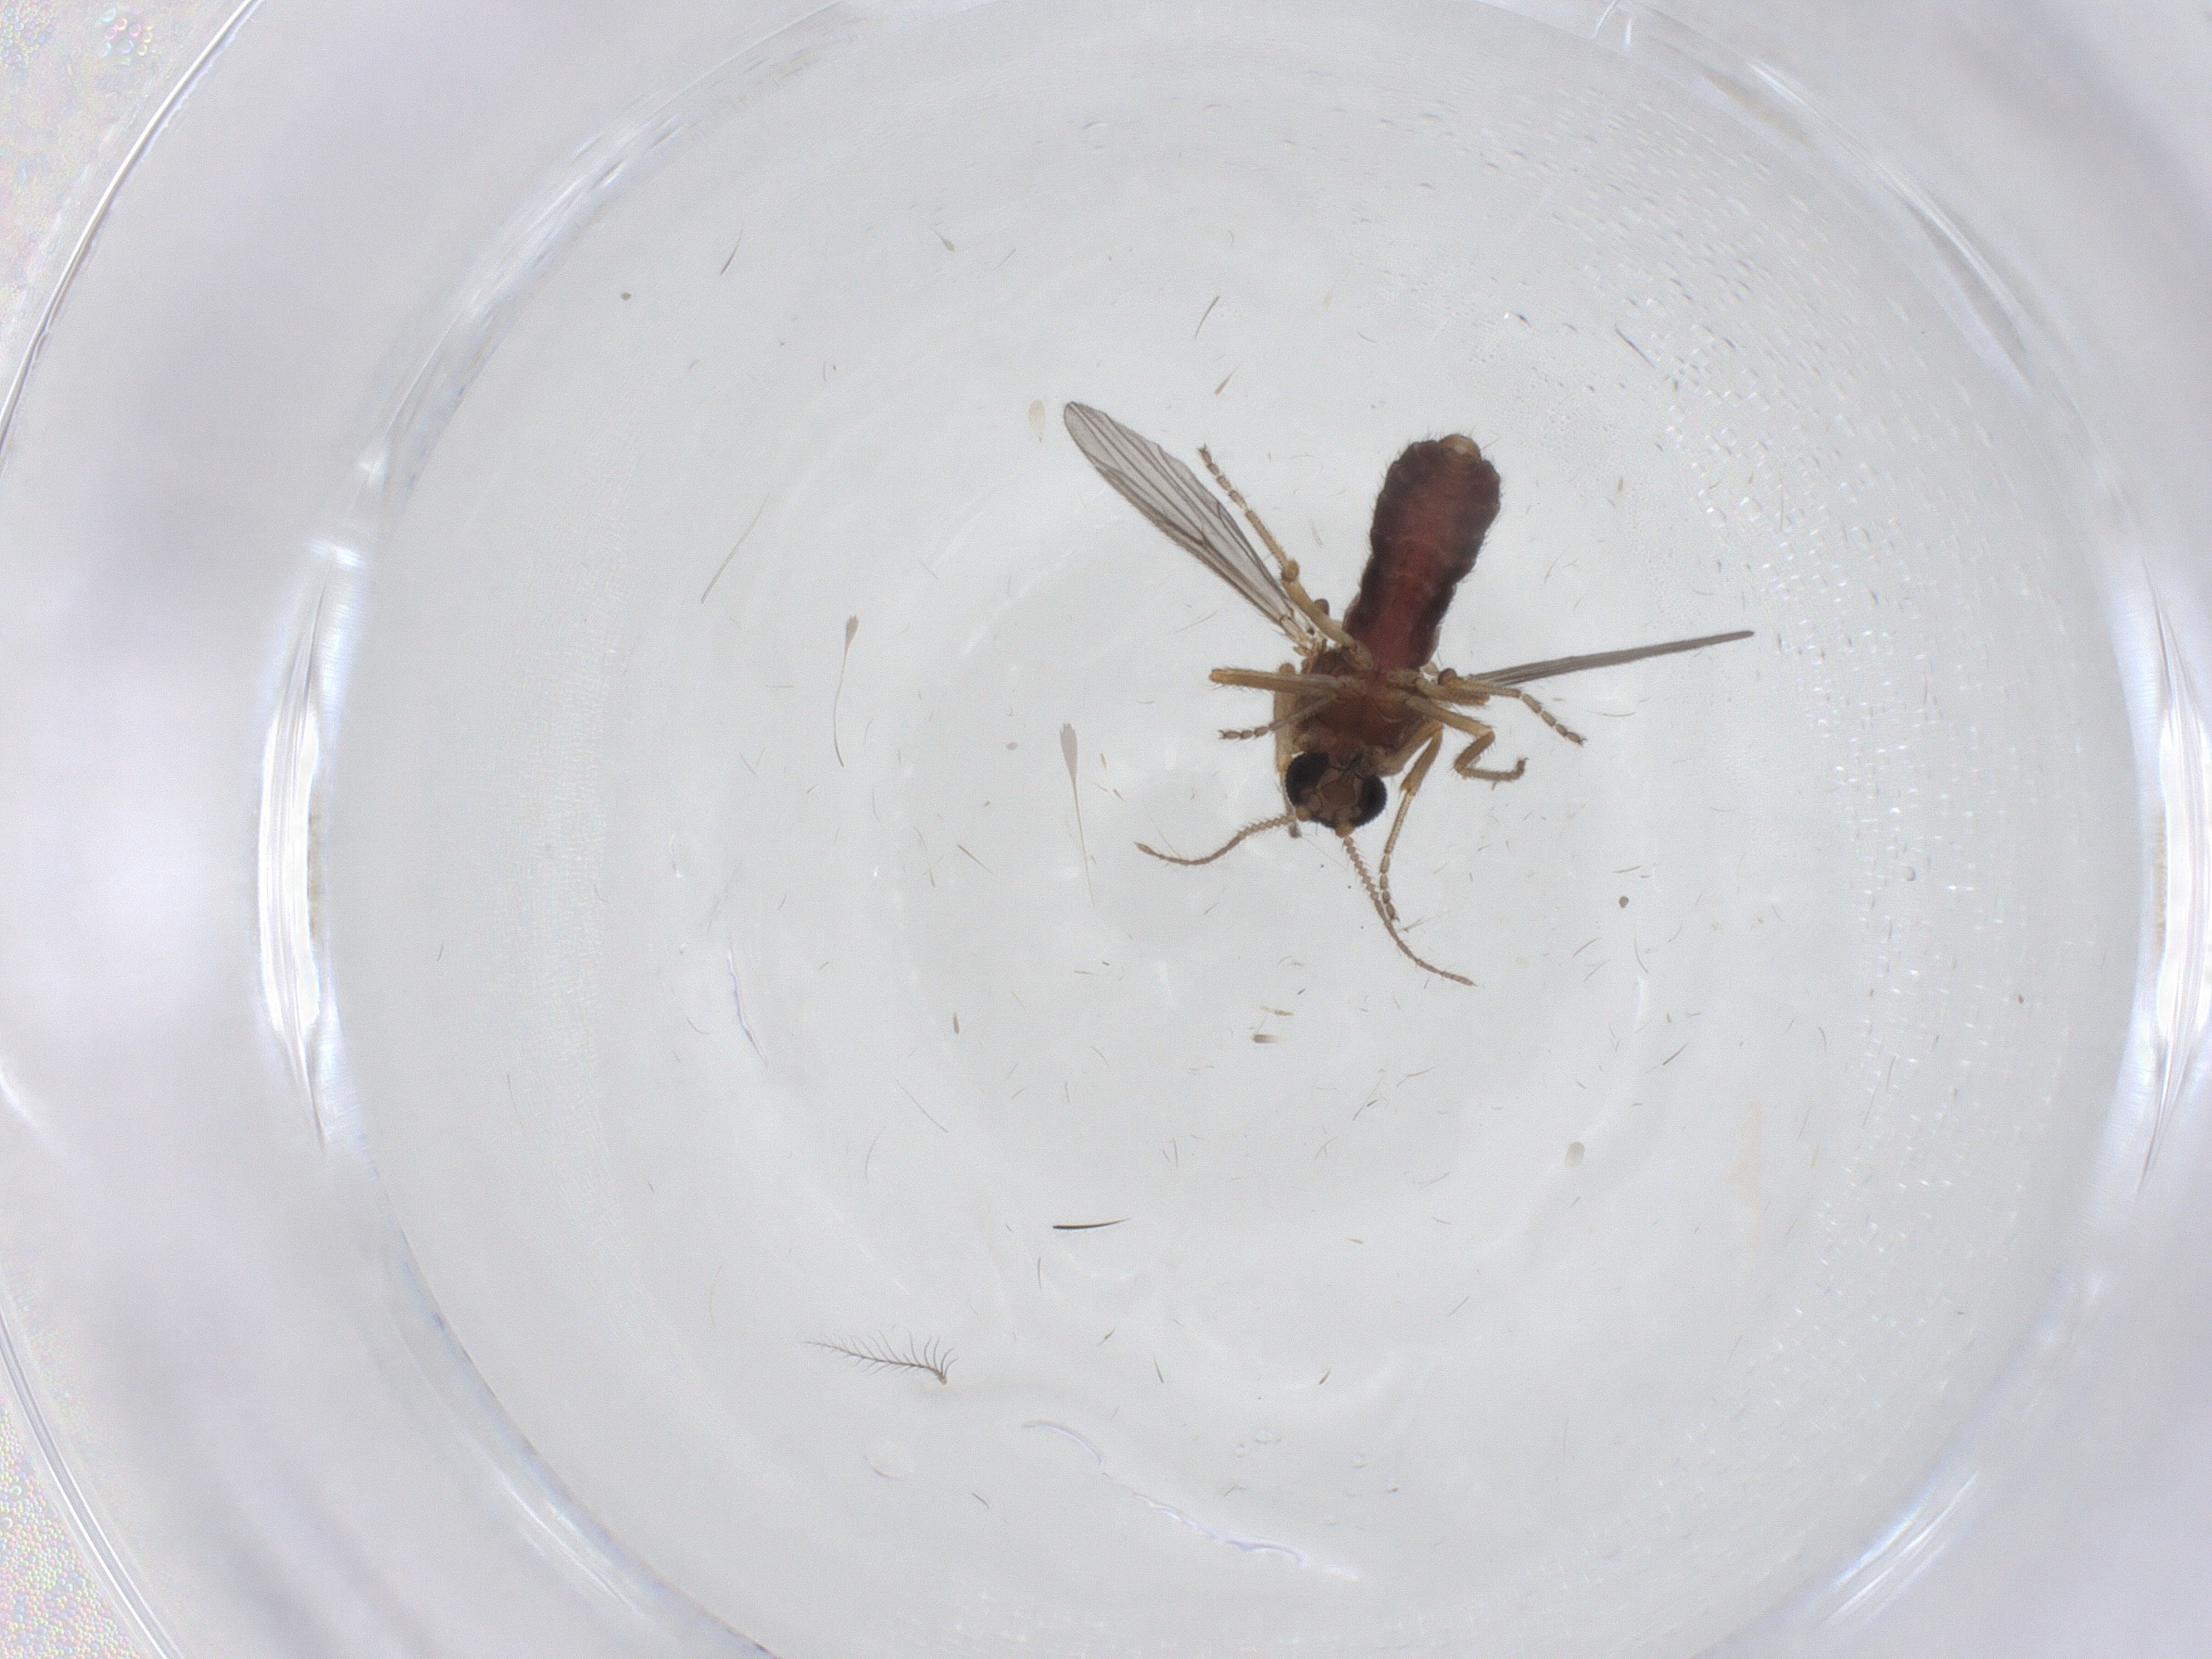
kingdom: Animalia
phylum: Arthropoda
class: Insecta
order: Diptera
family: Ceratopogonidae
